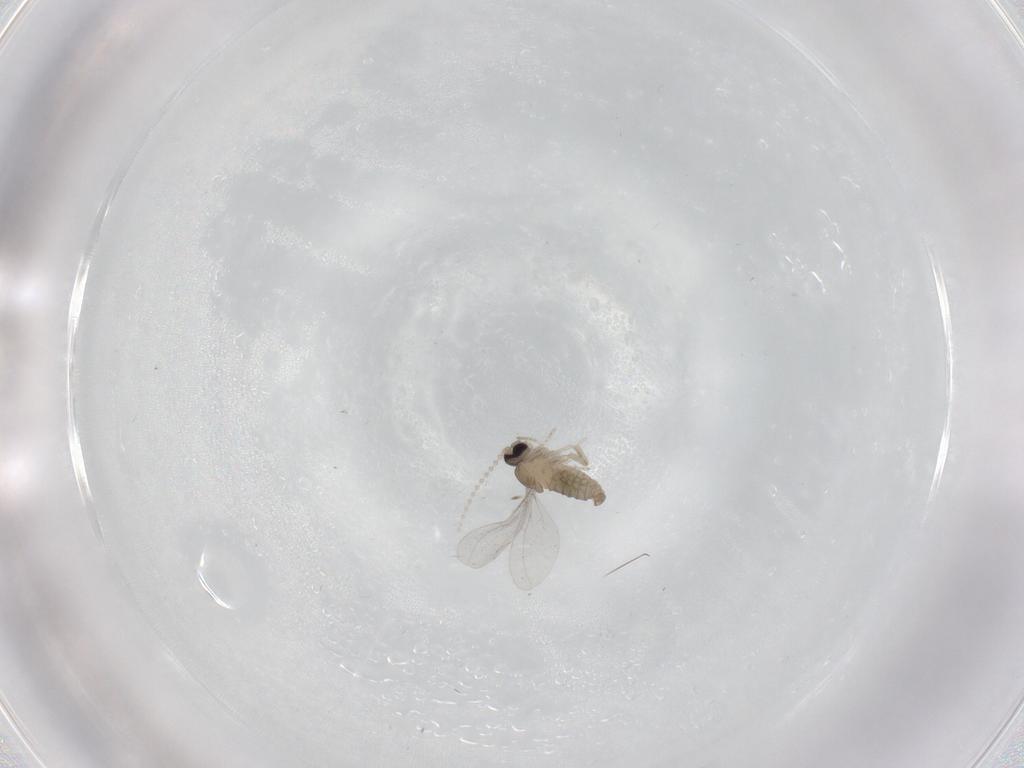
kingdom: Animalia
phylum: Arthropoda
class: Insecta
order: Diptera
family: Cecidomyiidae
